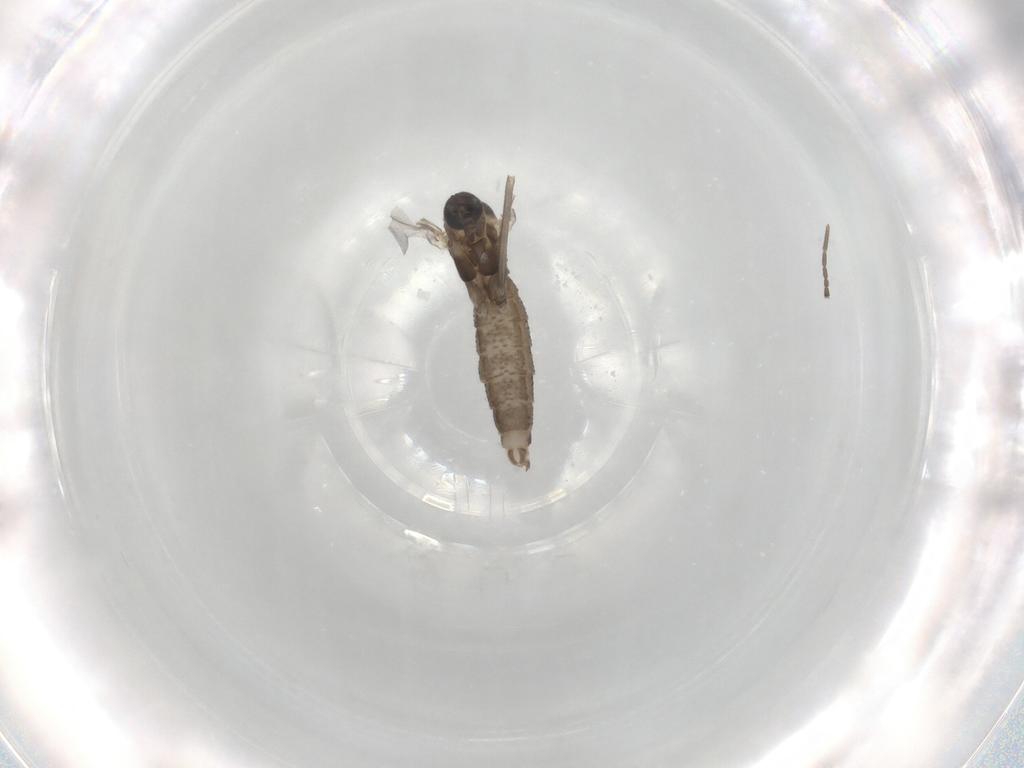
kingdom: Animalia
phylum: Arthropoda
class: Insecta
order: Diptera
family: Cecidomyiidae
